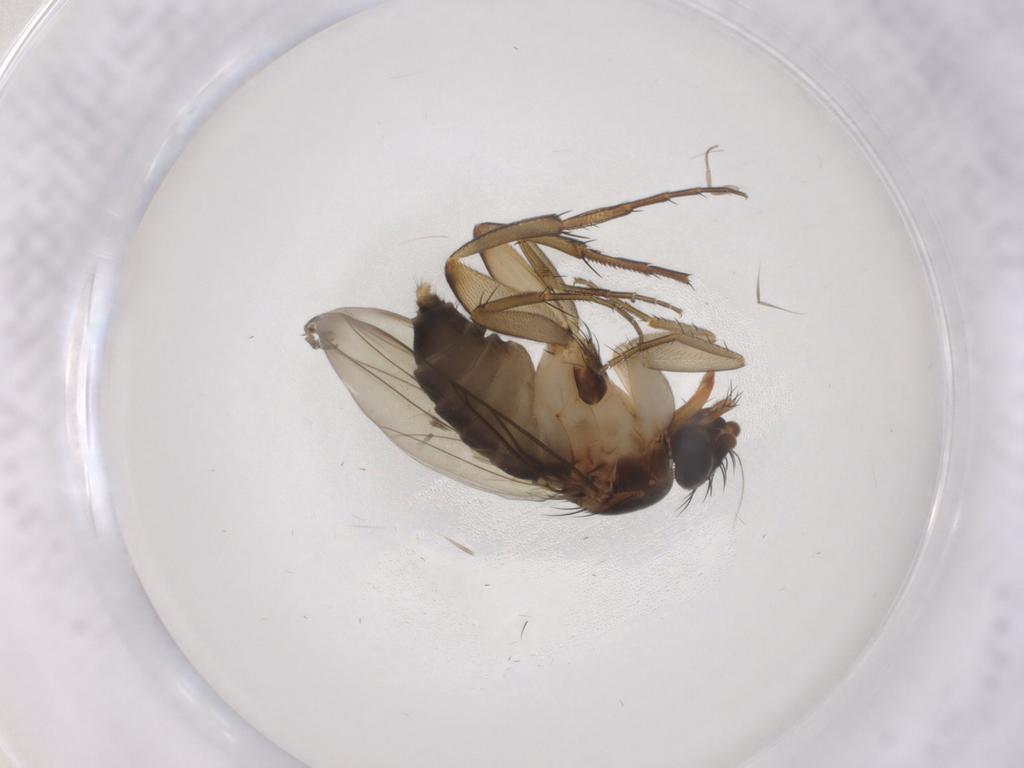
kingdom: Animalia
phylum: Arthropoda
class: Insecta
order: Diptera
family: Phoridae
